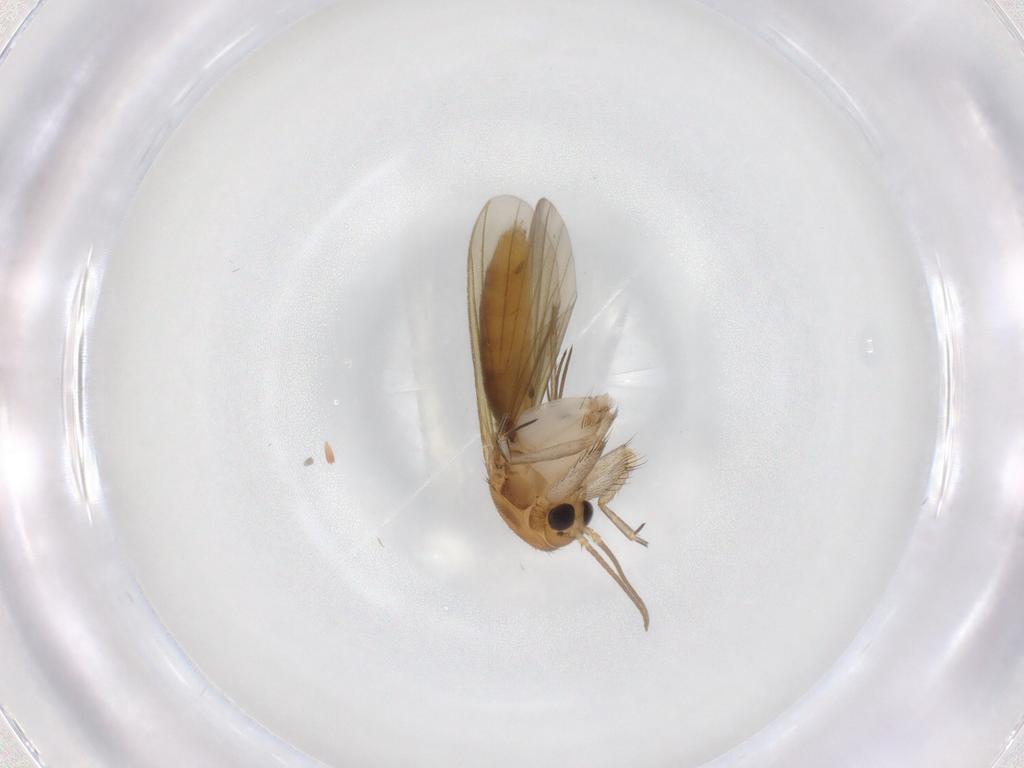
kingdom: Animalia
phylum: Arthropoda
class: Insecta
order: Diptera
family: Mycetophilidae
